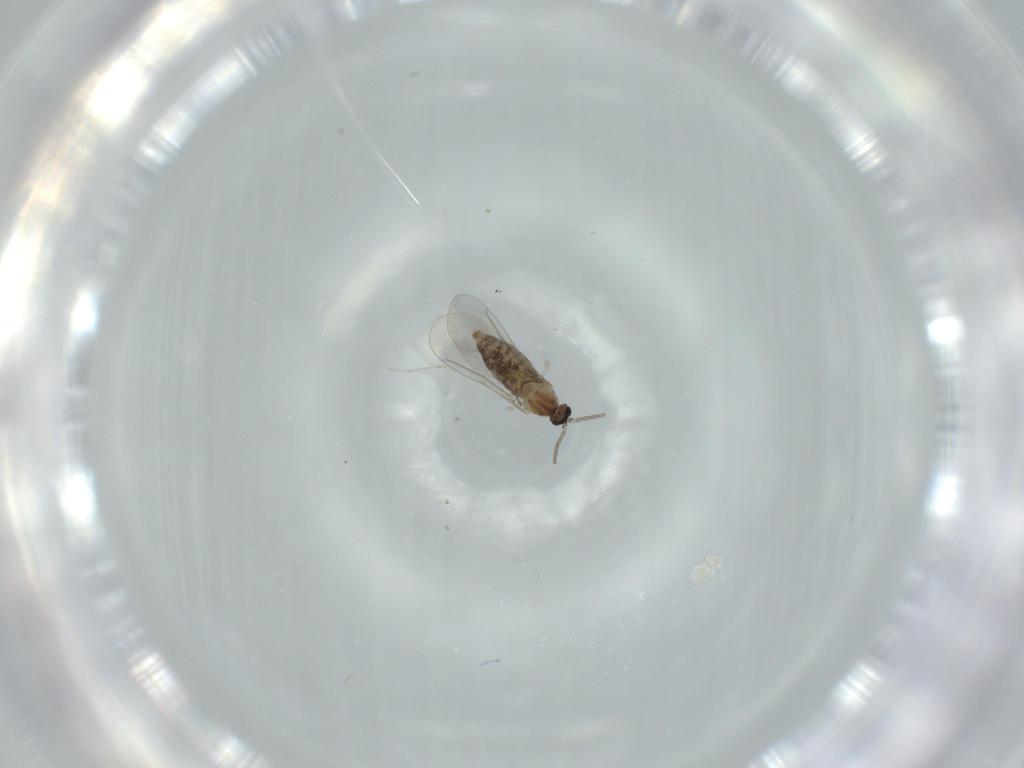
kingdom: Animalia
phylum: Arthropoda
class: Insecta
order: Diptera
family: Cecidomyiidae
